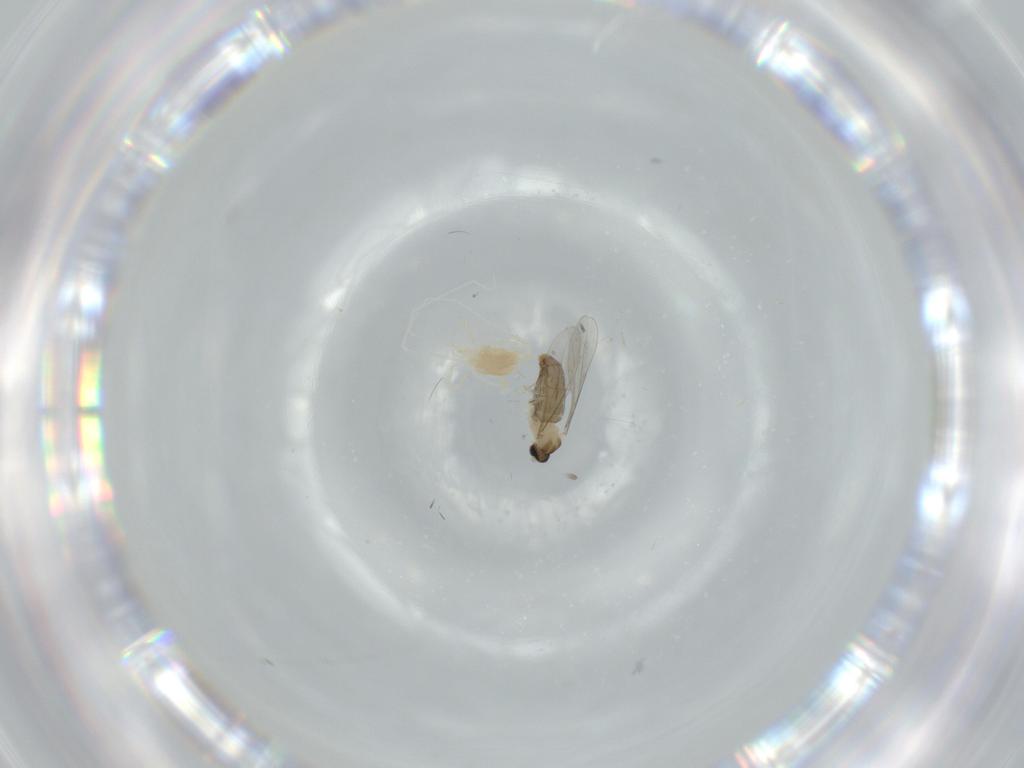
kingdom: Animalia
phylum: Arthropoda
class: Insecta
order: Diptera
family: Cecidomyiidae
